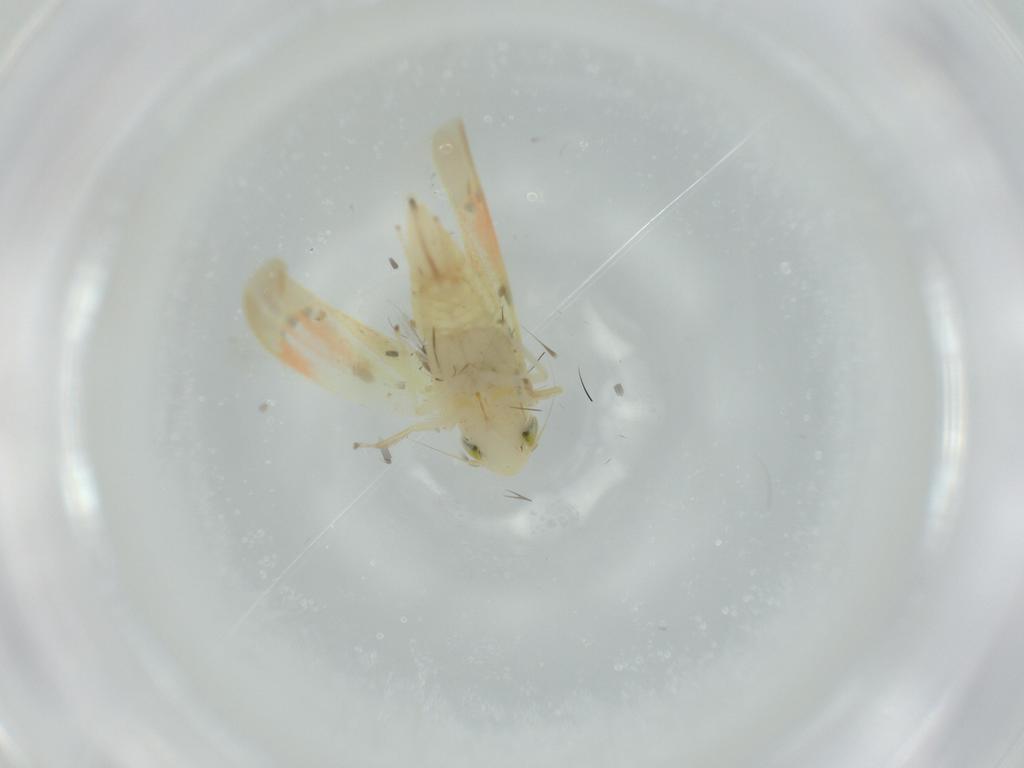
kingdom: Animalia
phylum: Arthropoda
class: Insecta
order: Hemiptera
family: Cicadellidae
